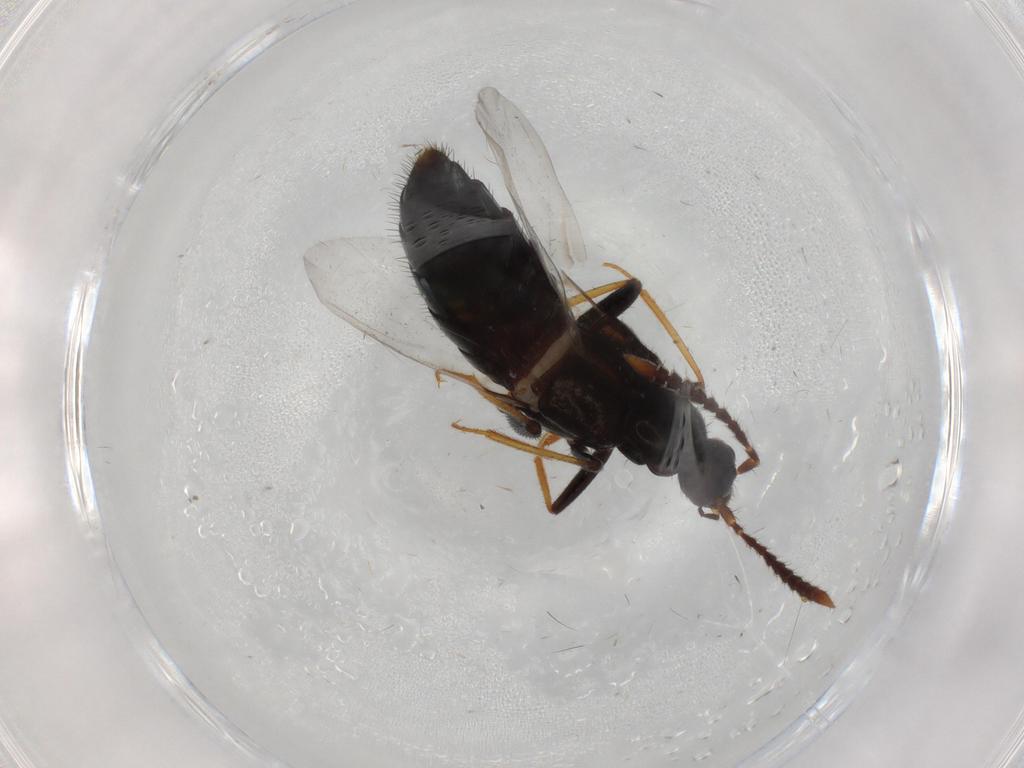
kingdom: Animalia
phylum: Arthropoda
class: Insecta
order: Coleoptera
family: Staphylinidae
